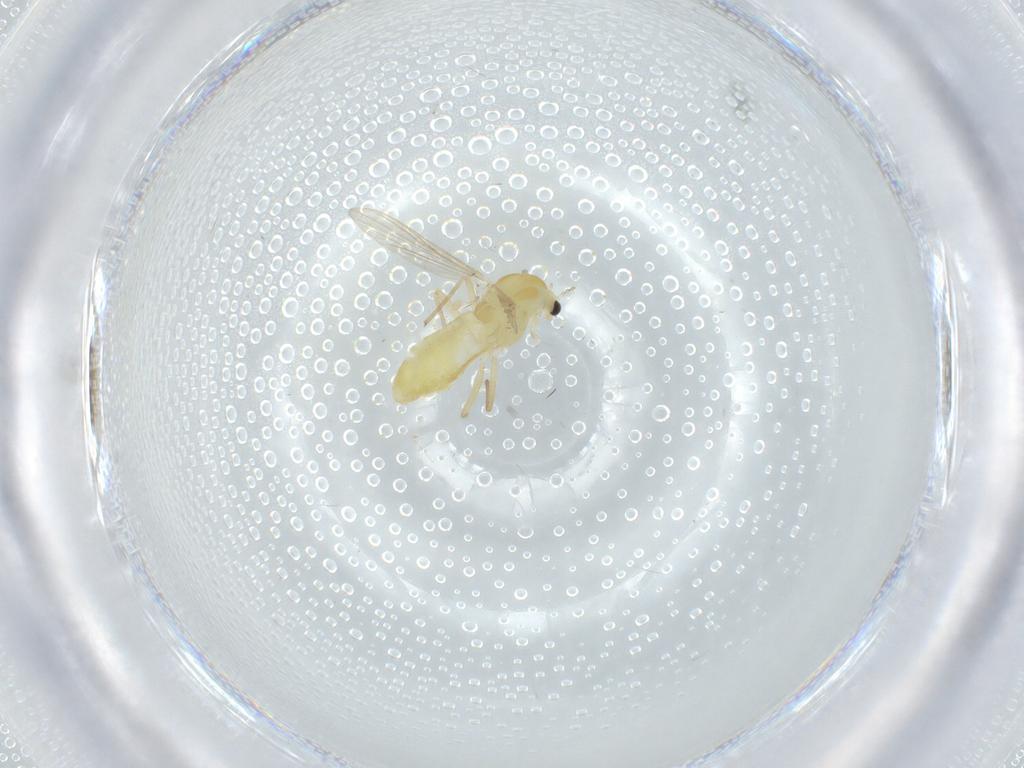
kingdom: Animalia
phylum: Arthropoda
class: Insecta
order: Diptera
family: Chironomidae
